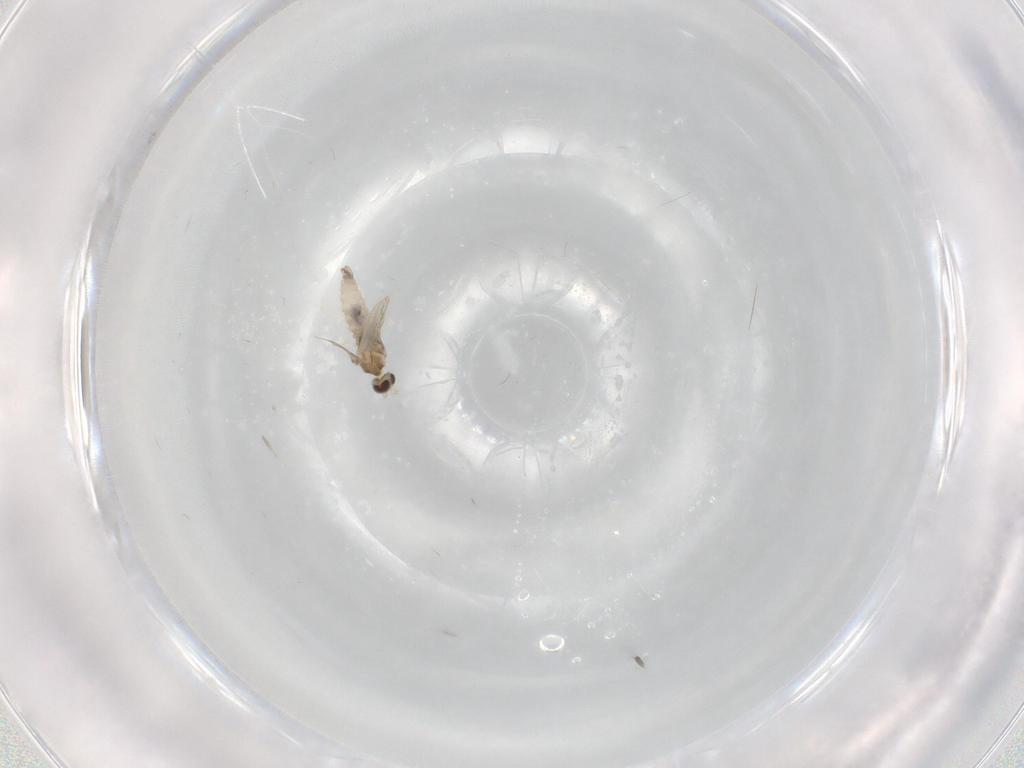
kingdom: Animalia
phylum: Arthropoda
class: Insecta
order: Diptera
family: Cecidomyiidae
